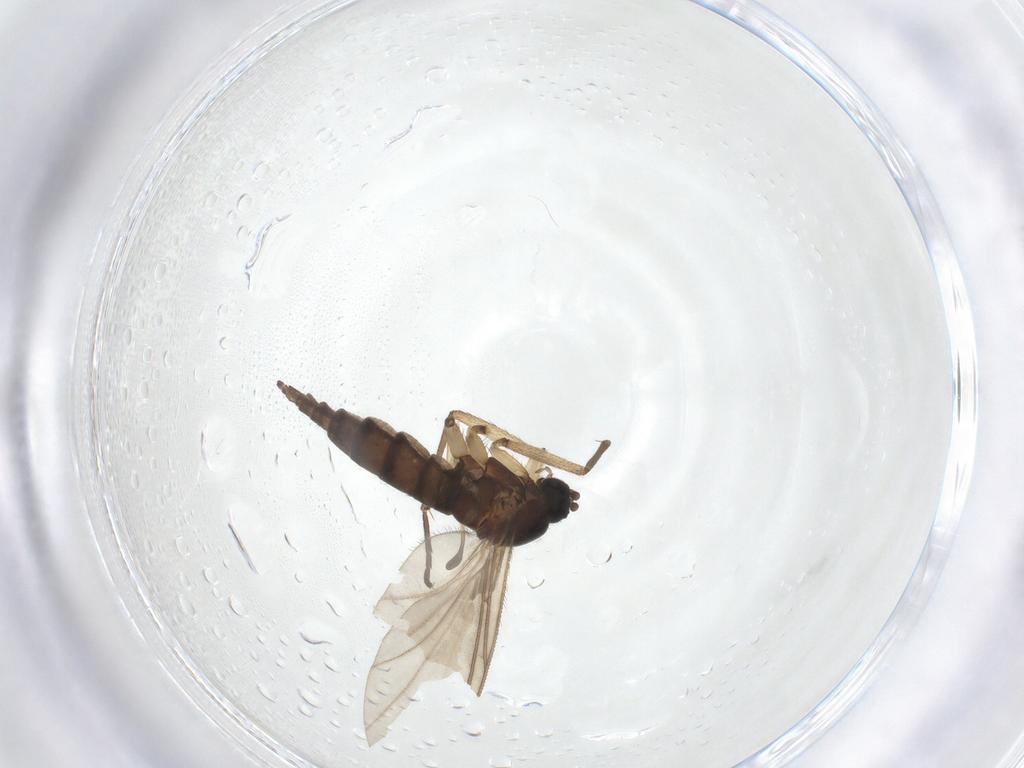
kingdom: Animalia
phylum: Arthropoda
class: Insecta
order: Diptera
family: Sciaridae
